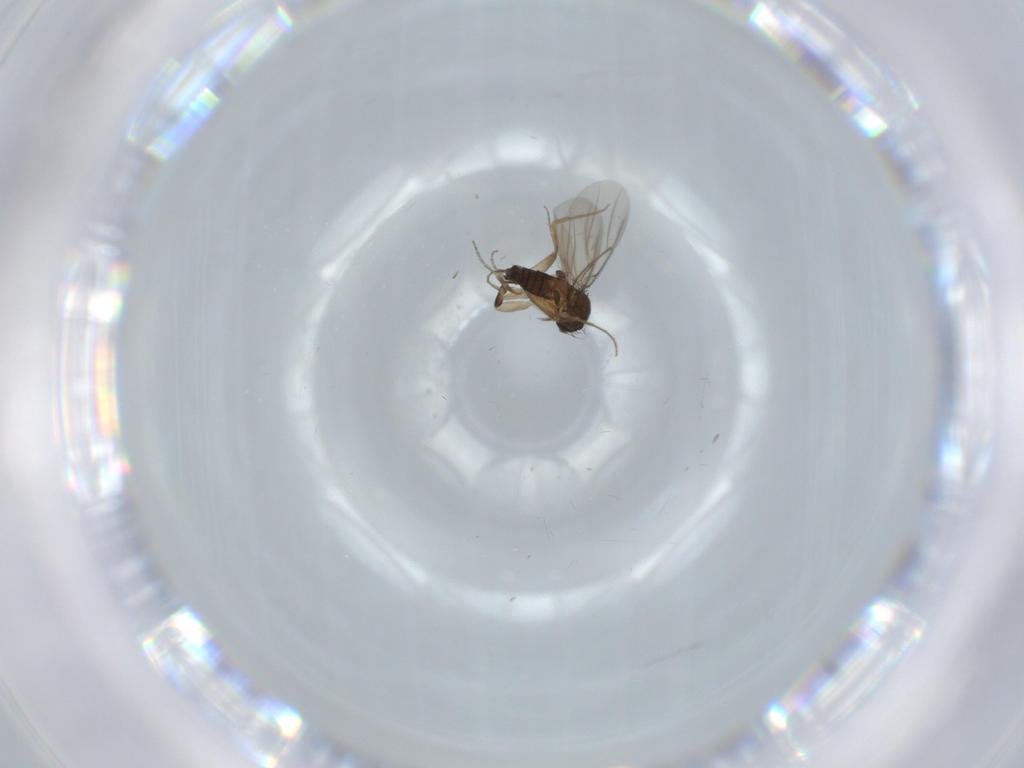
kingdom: Animalia
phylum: Arthropoda
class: Insecta
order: Diptera
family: Phoridae
